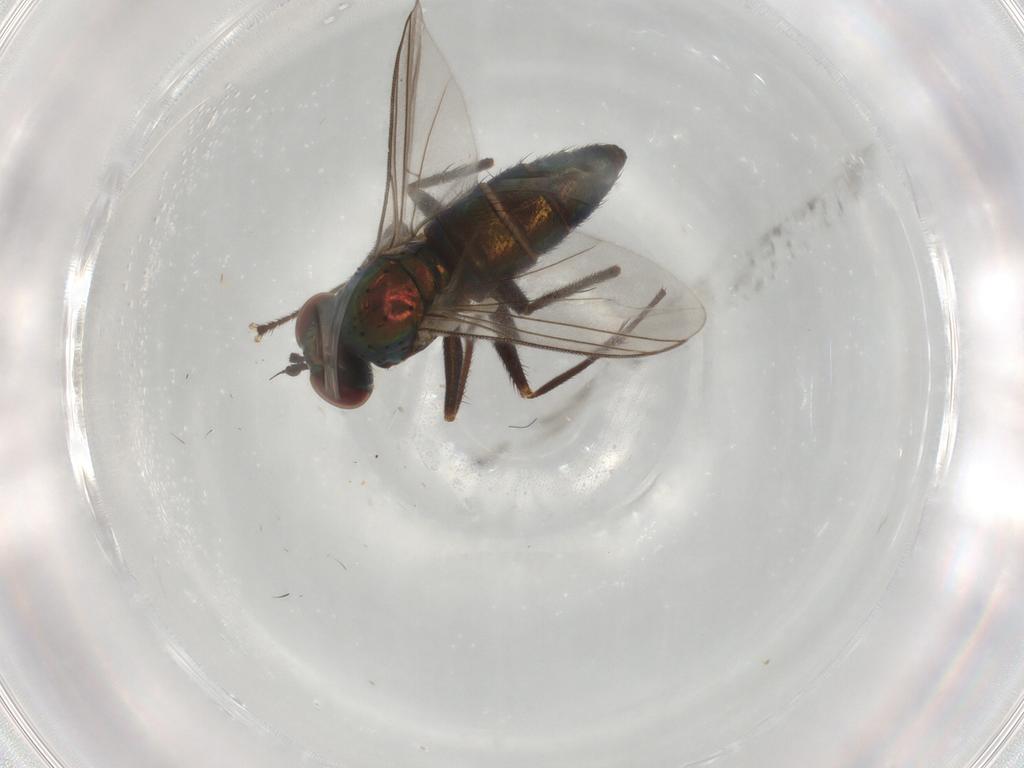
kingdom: Animalia
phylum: Arthropoda
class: Insecta
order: Diptera
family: Dolichopodidae
